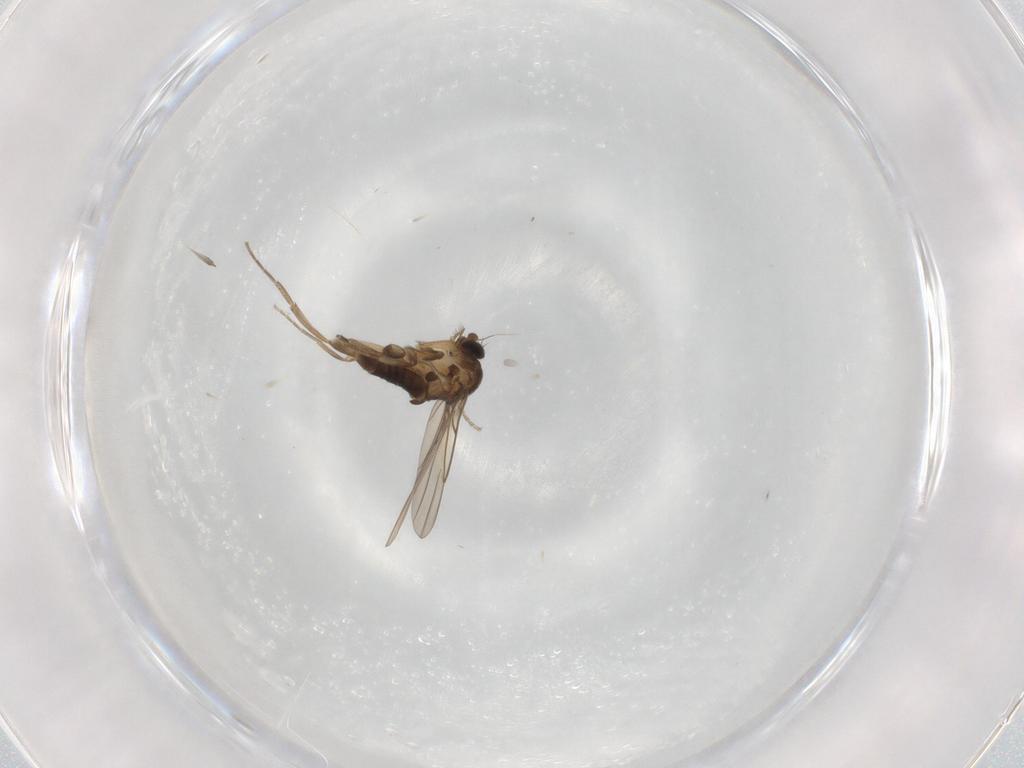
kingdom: Animalia
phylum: Arthropoda
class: Insecta
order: Diptera
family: Phoridae
